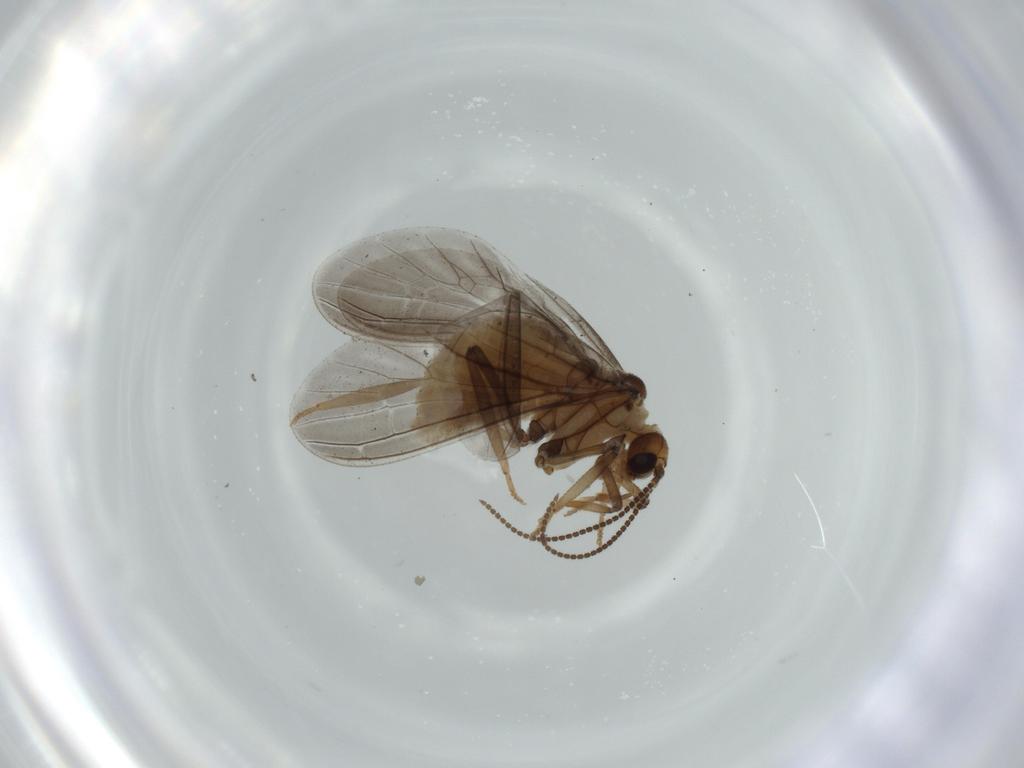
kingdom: Animalia
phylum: Arthropoda
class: Insecta
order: Neuroptera
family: Coniopterygidae
